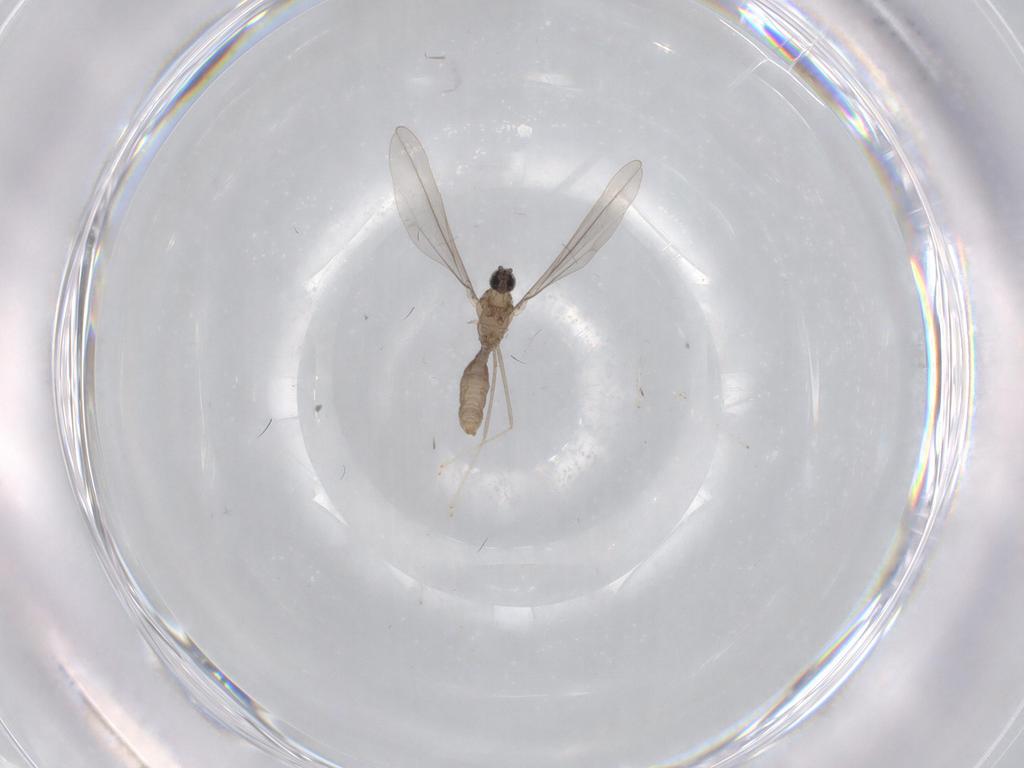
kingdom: Animalia
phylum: Arthropoda
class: Insecta
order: Diptera
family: Cecidomyiidae
